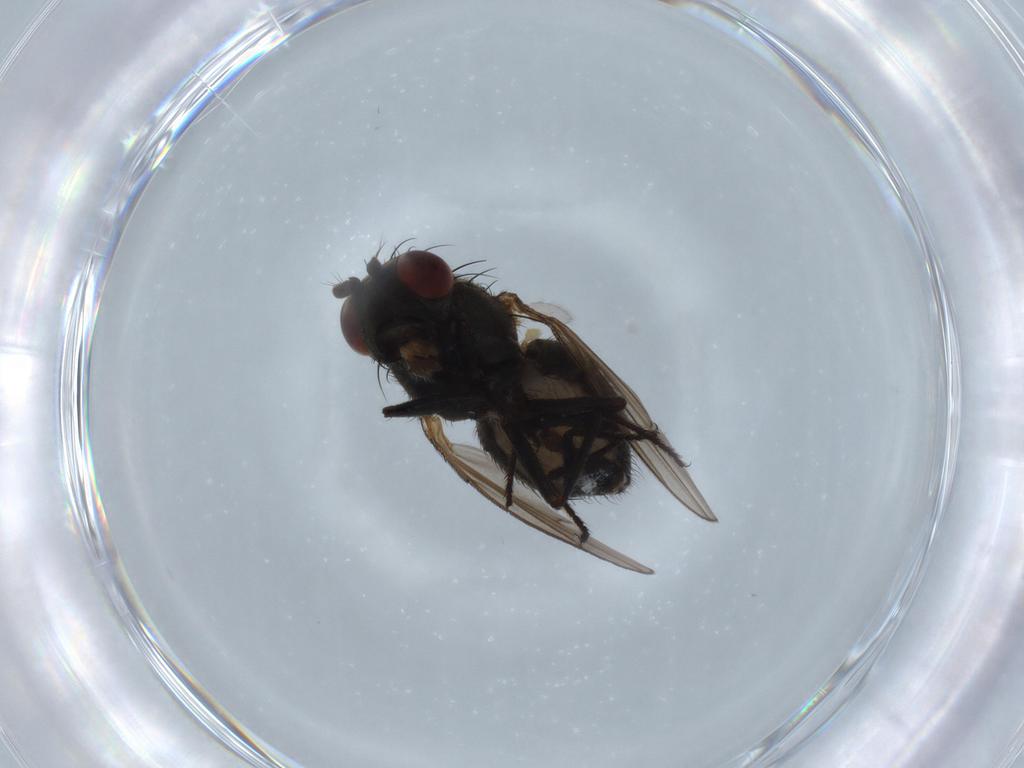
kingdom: Animalia
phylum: Arthropoda
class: Insecta
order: Diptera
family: Ephydridae
